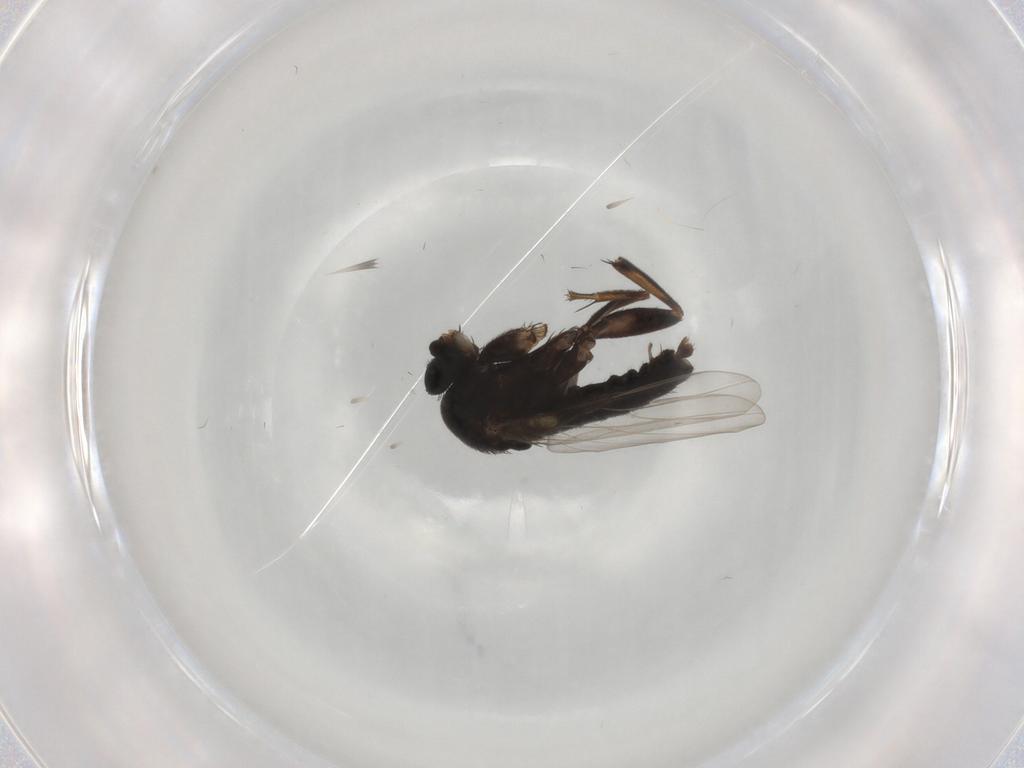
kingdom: Animalia
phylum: Arthropoda
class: Insecta
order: Diptera
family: Phoridae
